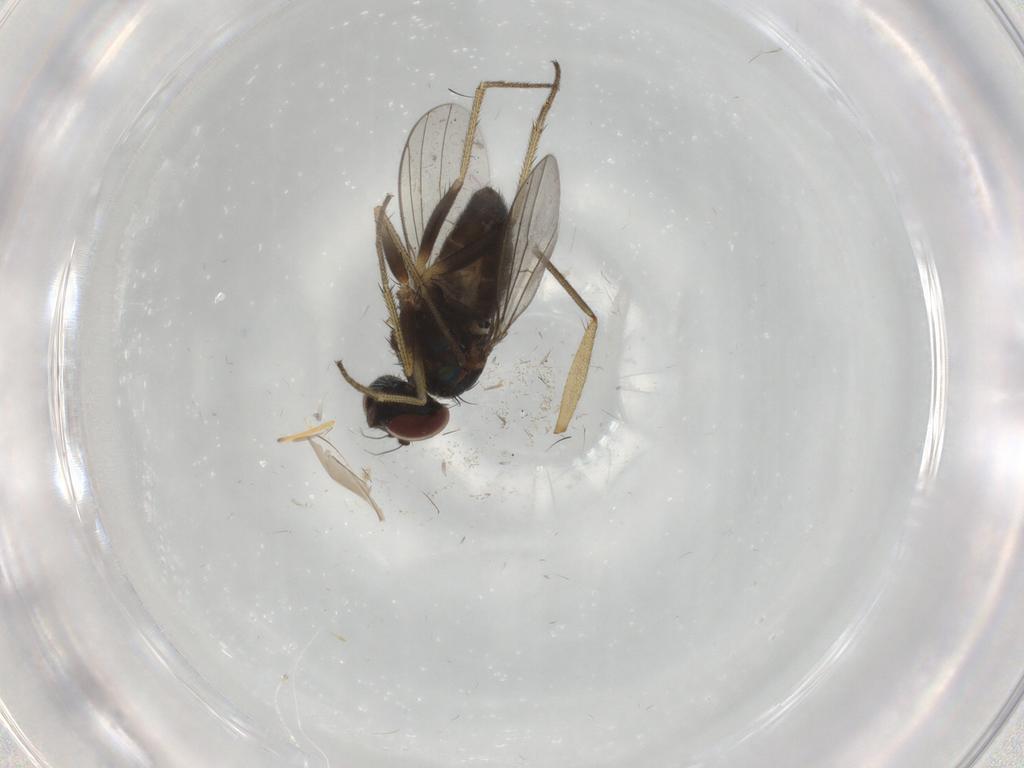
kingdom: Animalia
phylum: Arthropoda
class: Insecta
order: Diptera
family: Ditomyiidae
